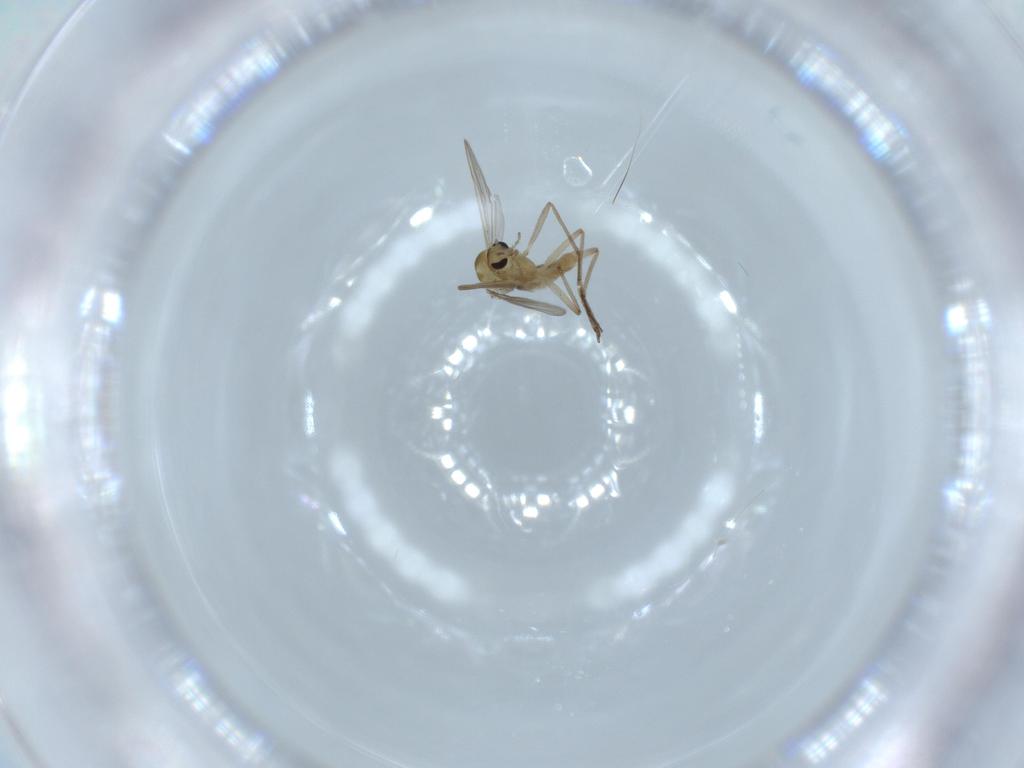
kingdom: Animalia
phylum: Arthropoda
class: Insecta
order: Diptera
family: Chironomidae
